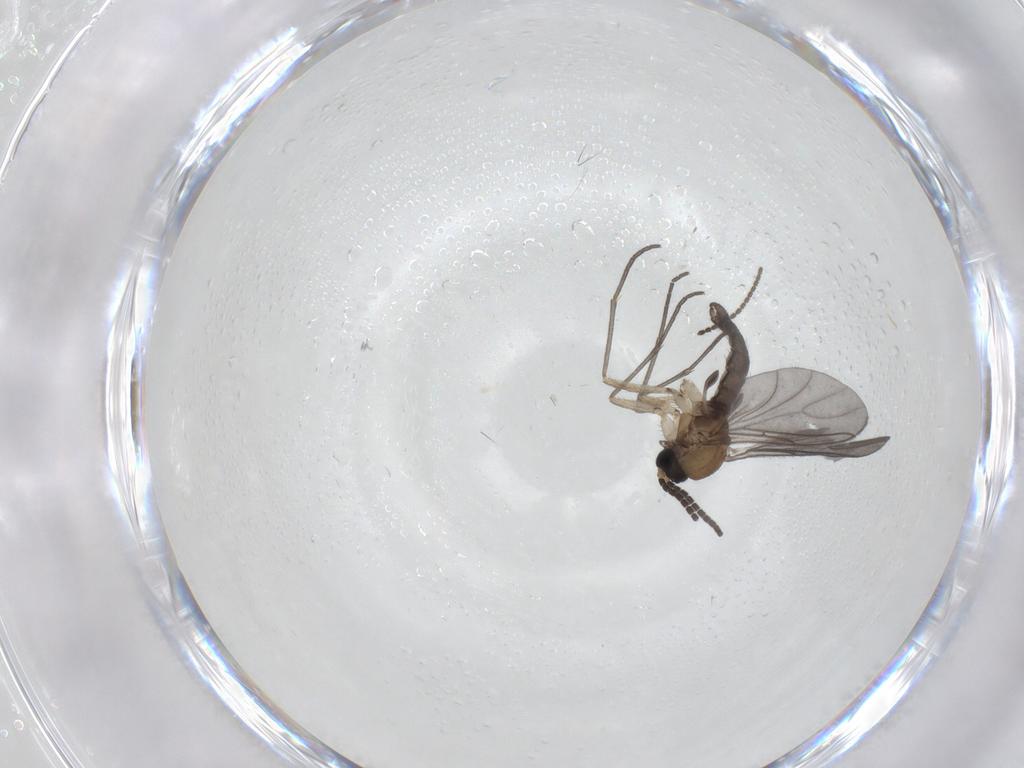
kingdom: Animalia
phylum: Arthropoda
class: Insecta
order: Diptera
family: Sciaridae
